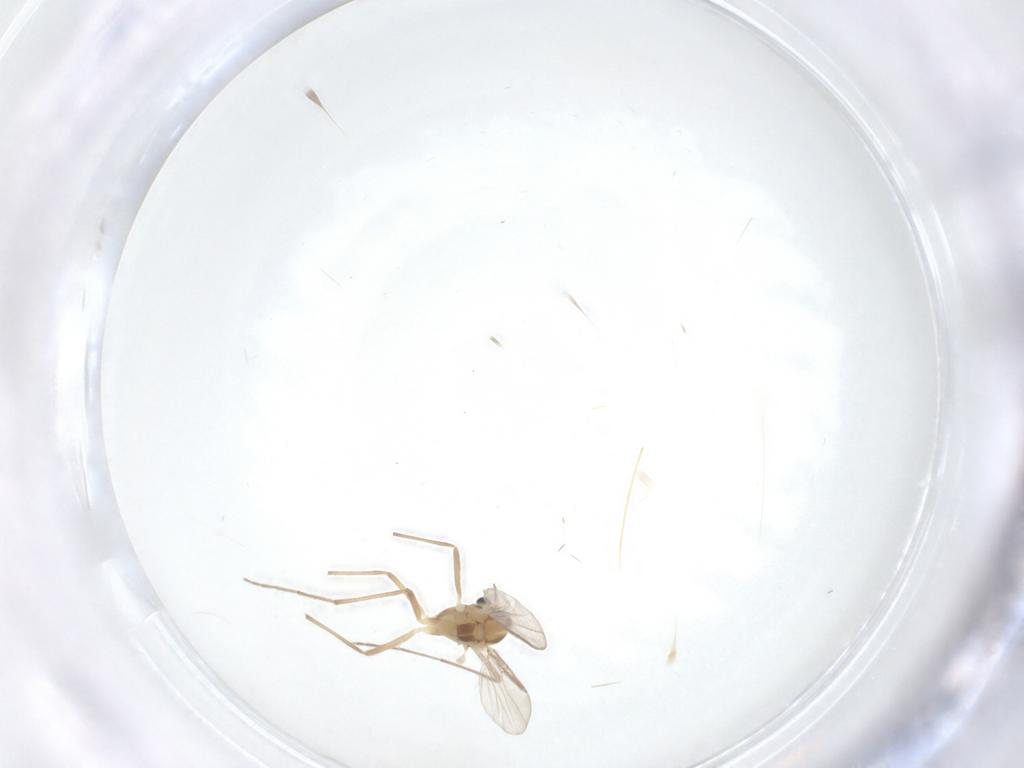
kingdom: Animalia
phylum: Arthropoda
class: Insecta
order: Diptera
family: Chironomidae
